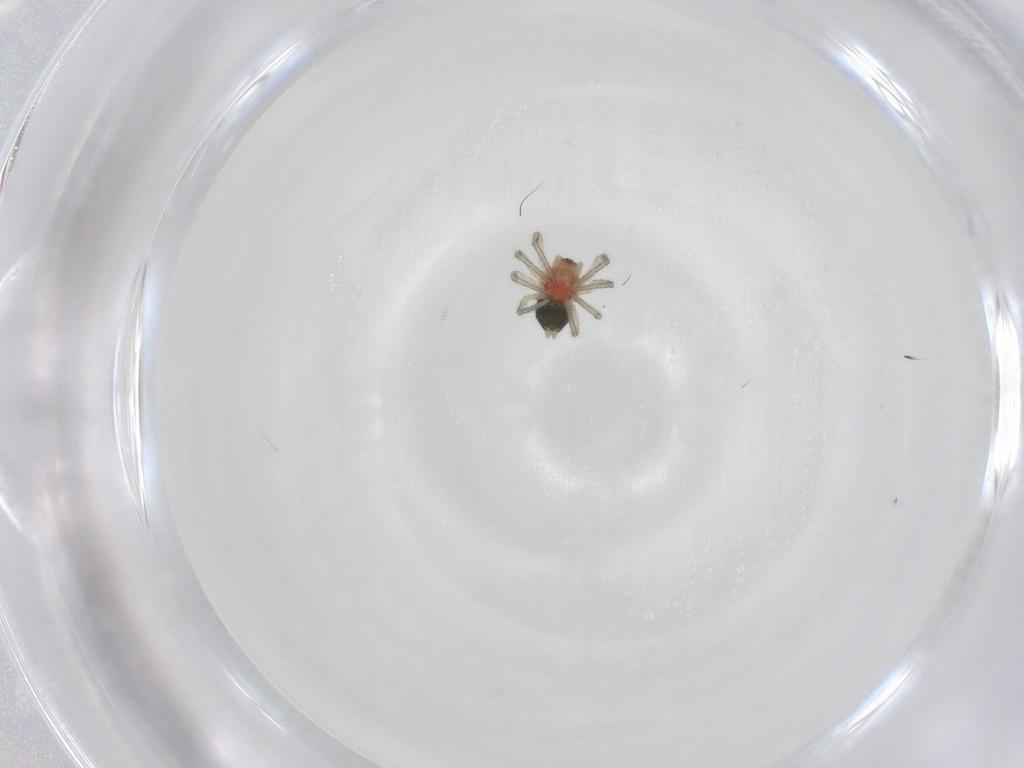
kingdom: Animalia
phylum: Arthropoda
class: Arachnida
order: Araneae
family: Linyphiidae
